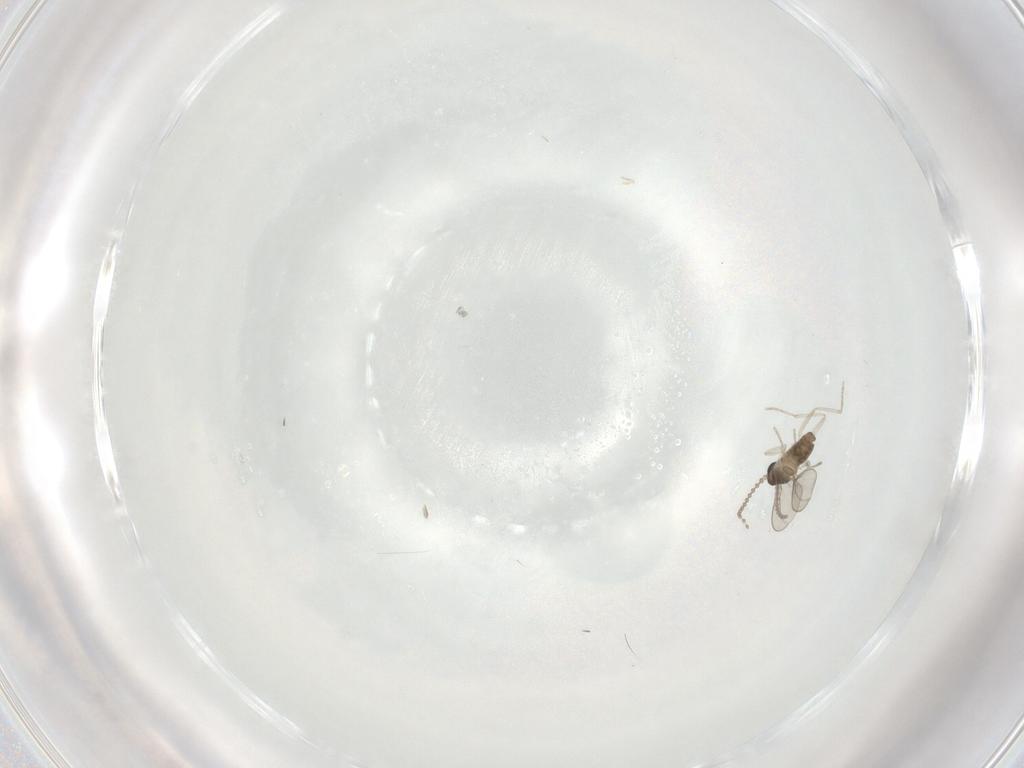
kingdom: Animalia
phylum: Arthropoda
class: Insecta
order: Diptera
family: Cecidomyiidae
